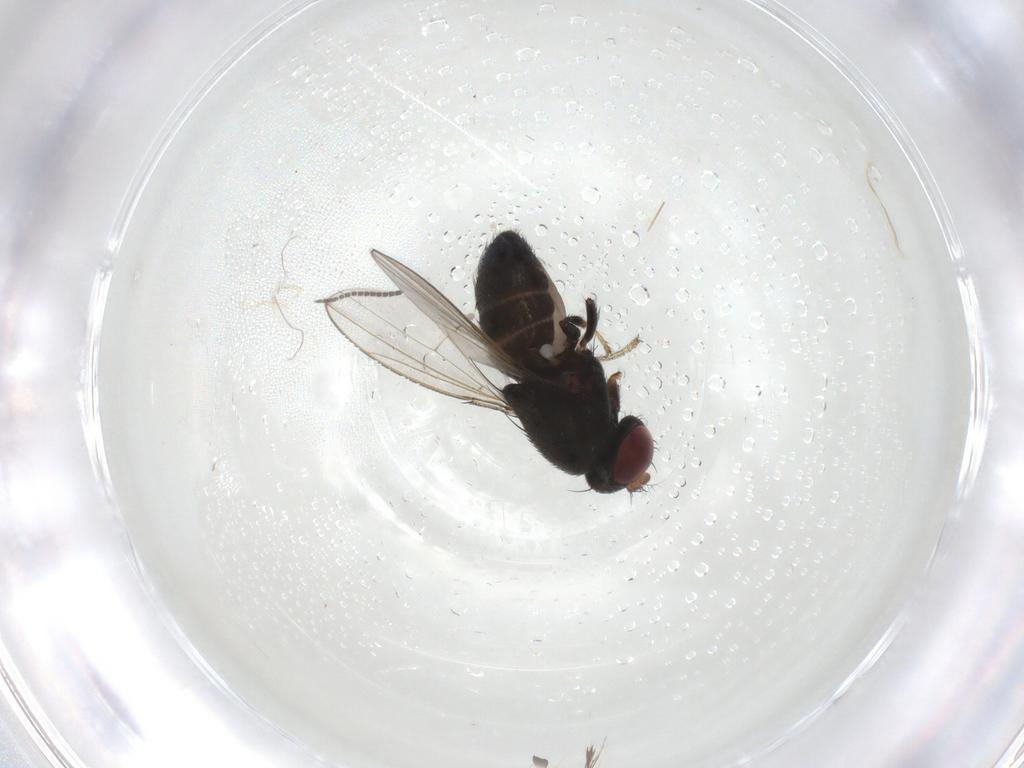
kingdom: Animalia
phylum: Arthropoda
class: Insecta
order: Diptera
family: Sciaridae
